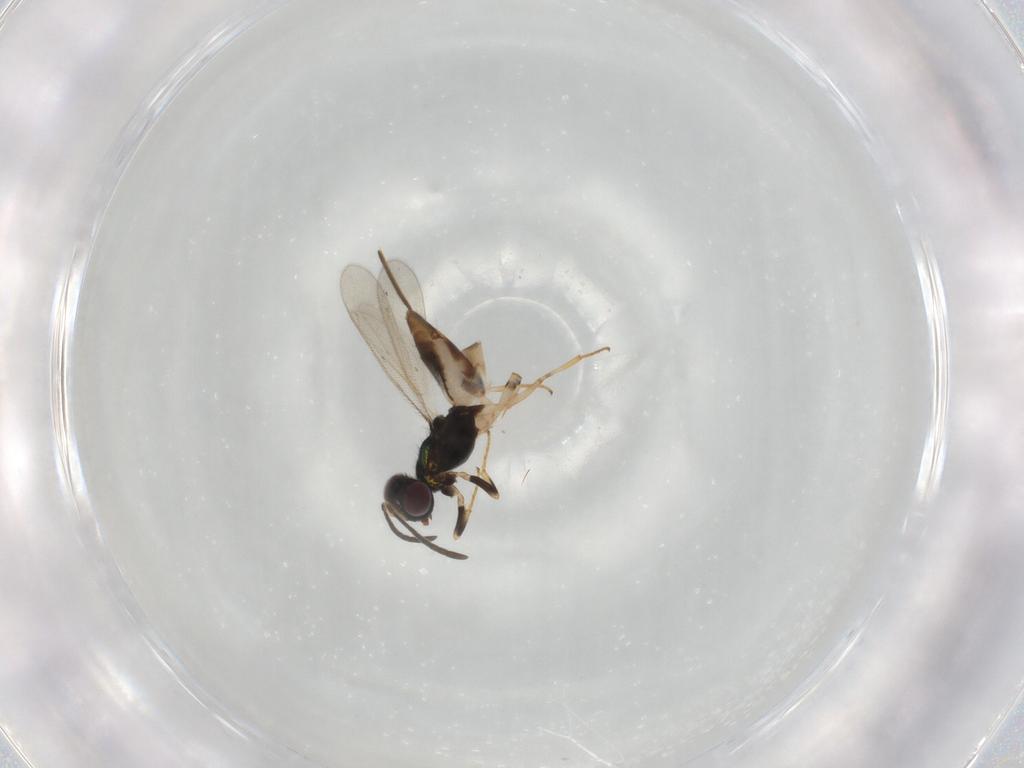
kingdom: Animalia
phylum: Arthropoda
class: Insecta
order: Hymenoptera
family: Eupelmidae
